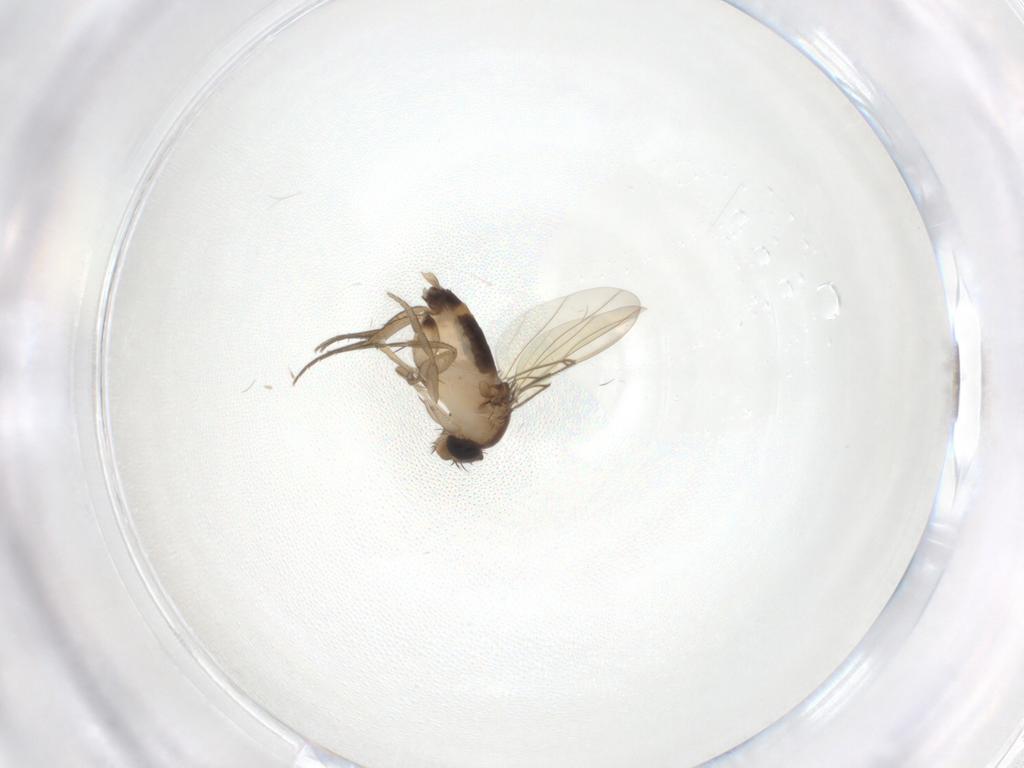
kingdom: Animalia
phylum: Arthropoda
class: Insecta
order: Diptera
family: Phoridae
